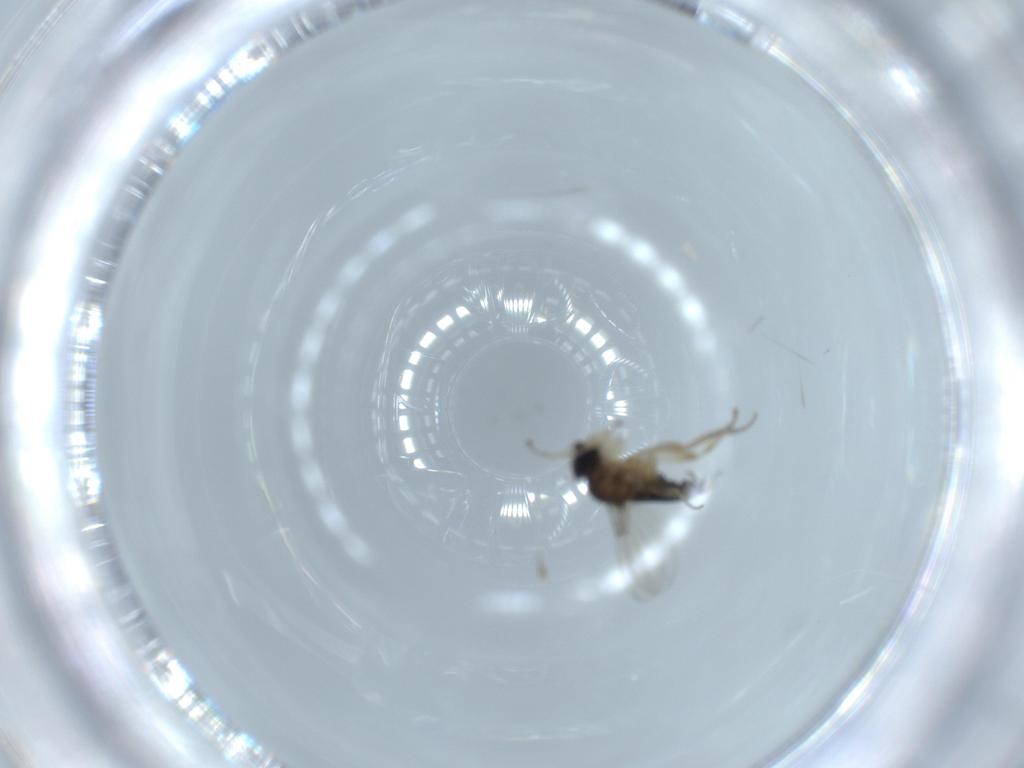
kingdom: Animalia
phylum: Arthropoda
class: Insecta
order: Diptera
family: Phoridae
